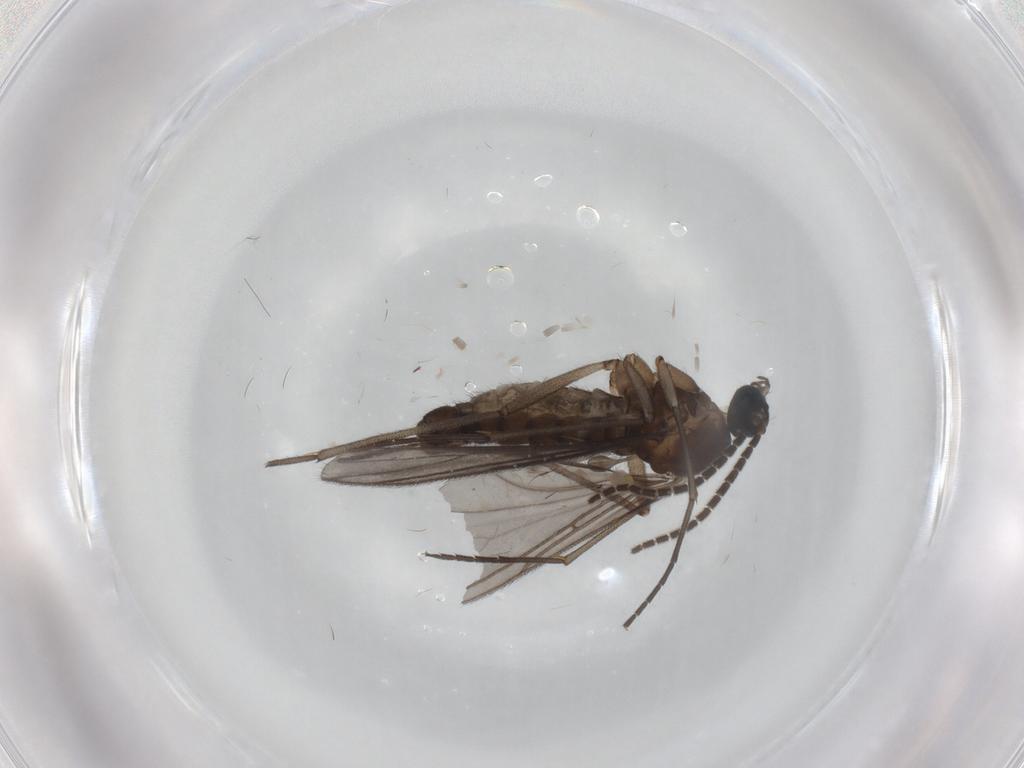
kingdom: Animalia
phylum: Arthropoda
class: Insecta
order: Diptera
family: Sciaridae
